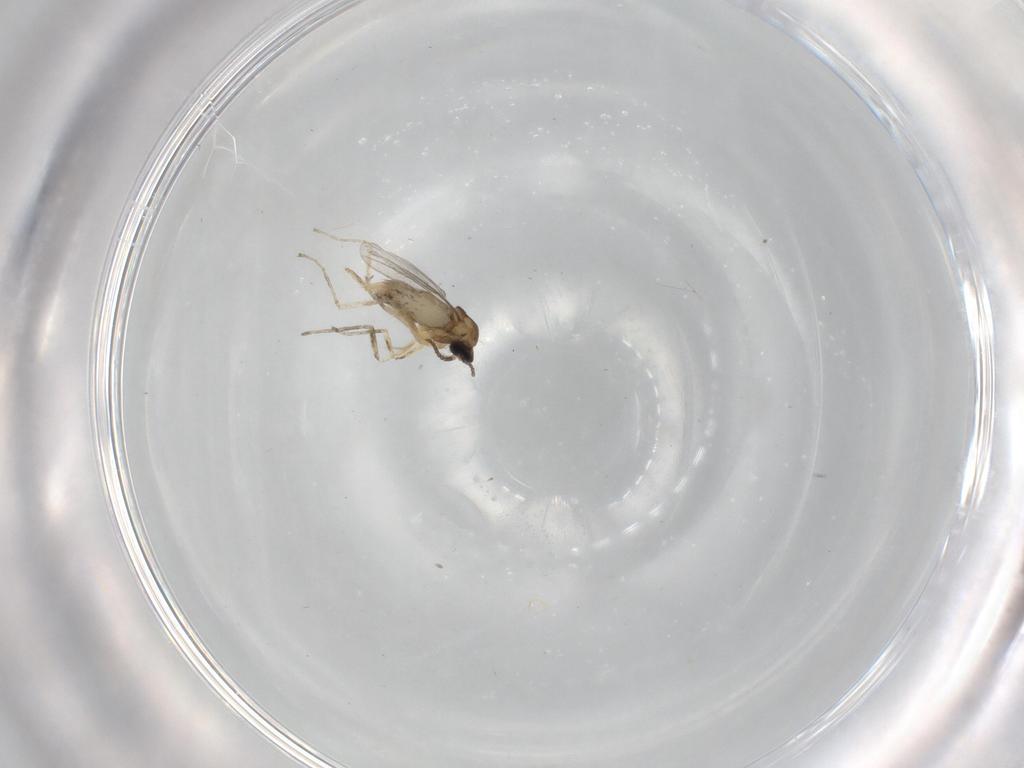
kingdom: Animalia
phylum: Arthropoda
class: Insecta
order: Diptera
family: Cecidomyiidae
